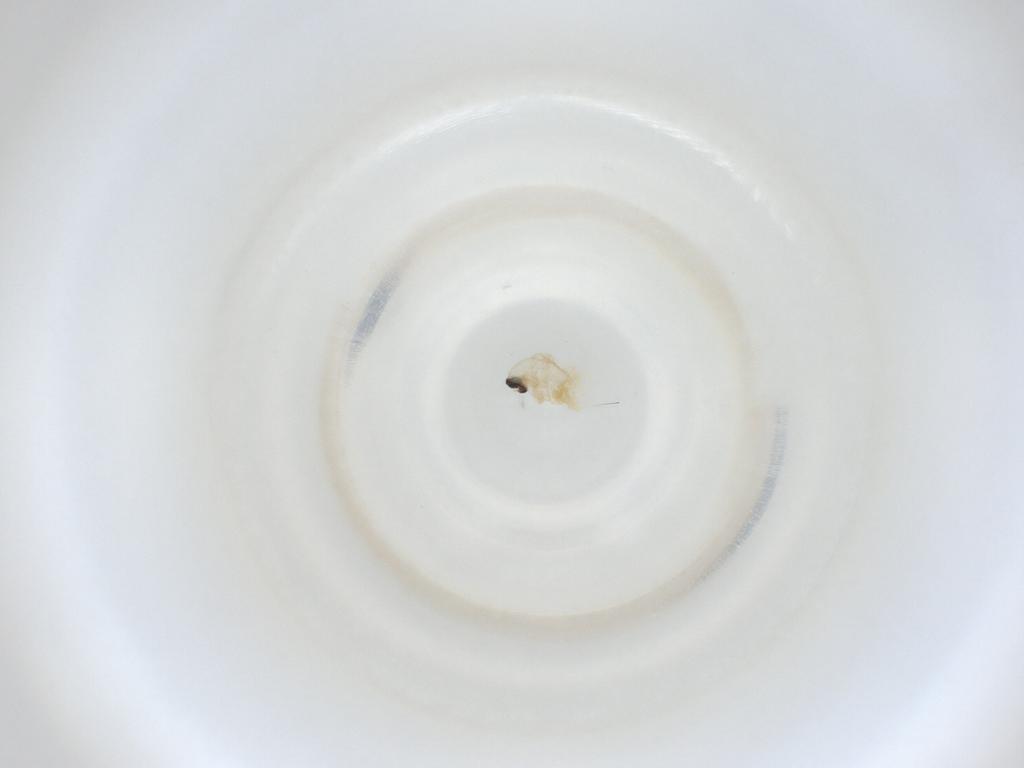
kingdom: Animalia
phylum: Arthropoda
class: Insecta
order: Diptera
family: Cecidomyiidae
